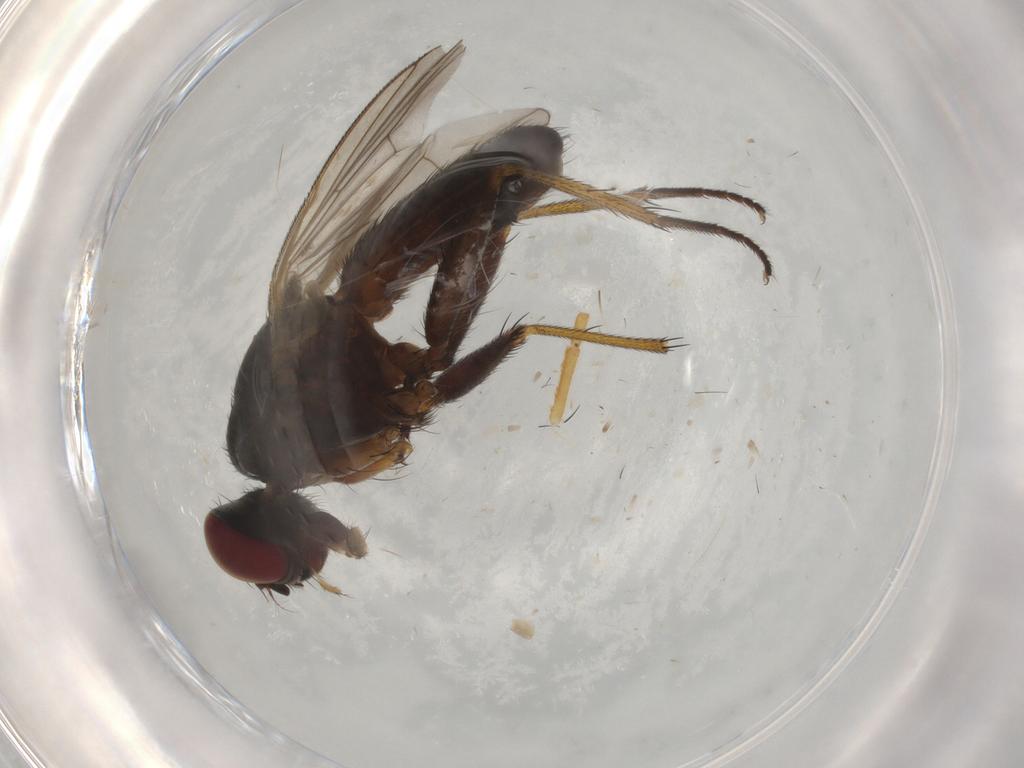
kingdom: Animalia
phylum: Arthropoda
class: Insecta
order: Diptera
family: Muscidae
